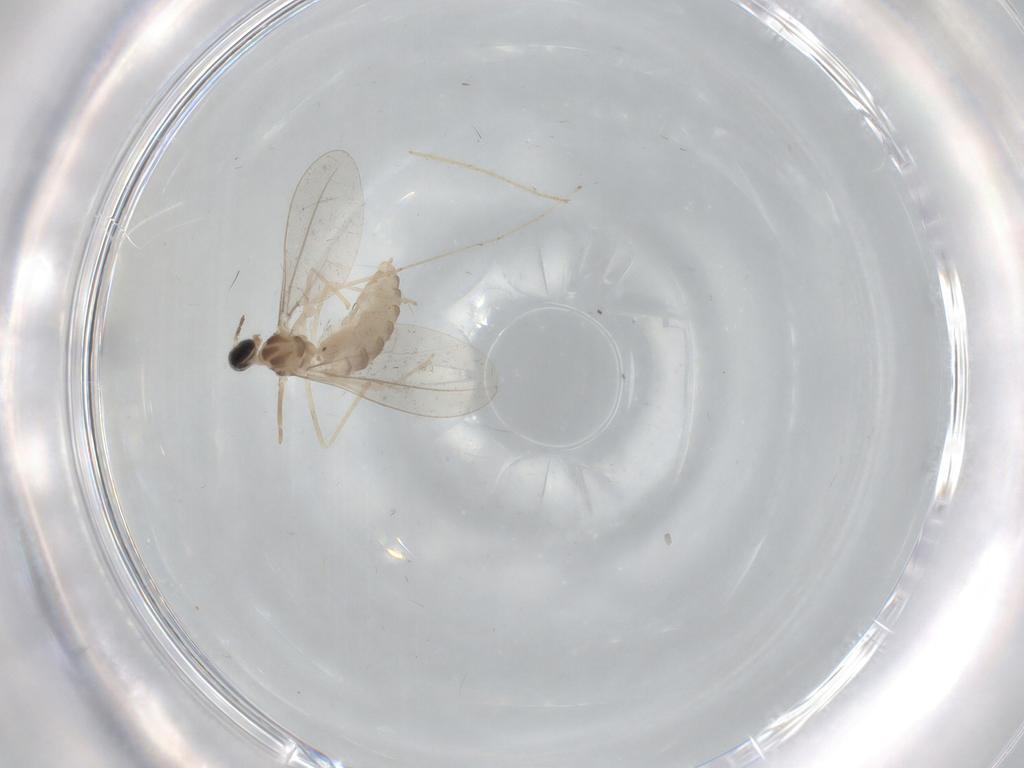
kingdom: Animalia
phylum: Arthropoda
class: Insecta
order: Diptera
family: Cecidomyiidae
